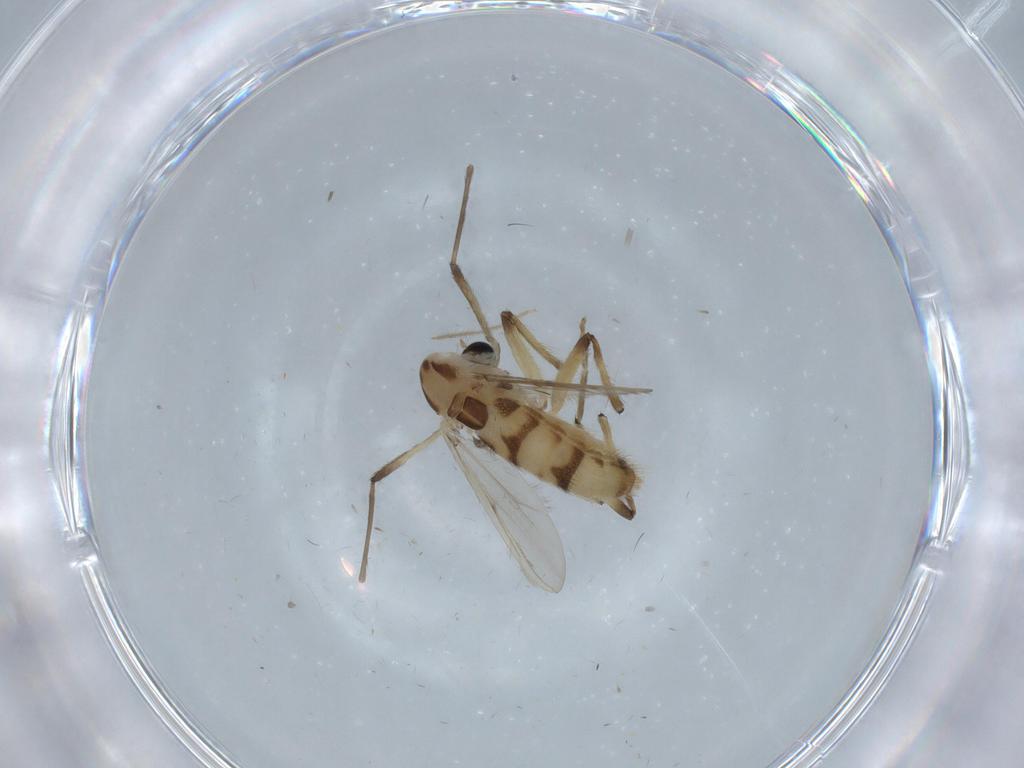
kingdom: Animalia
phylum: Arthropoda
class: Insecta
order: Diptera
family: Cecidomyiidae
